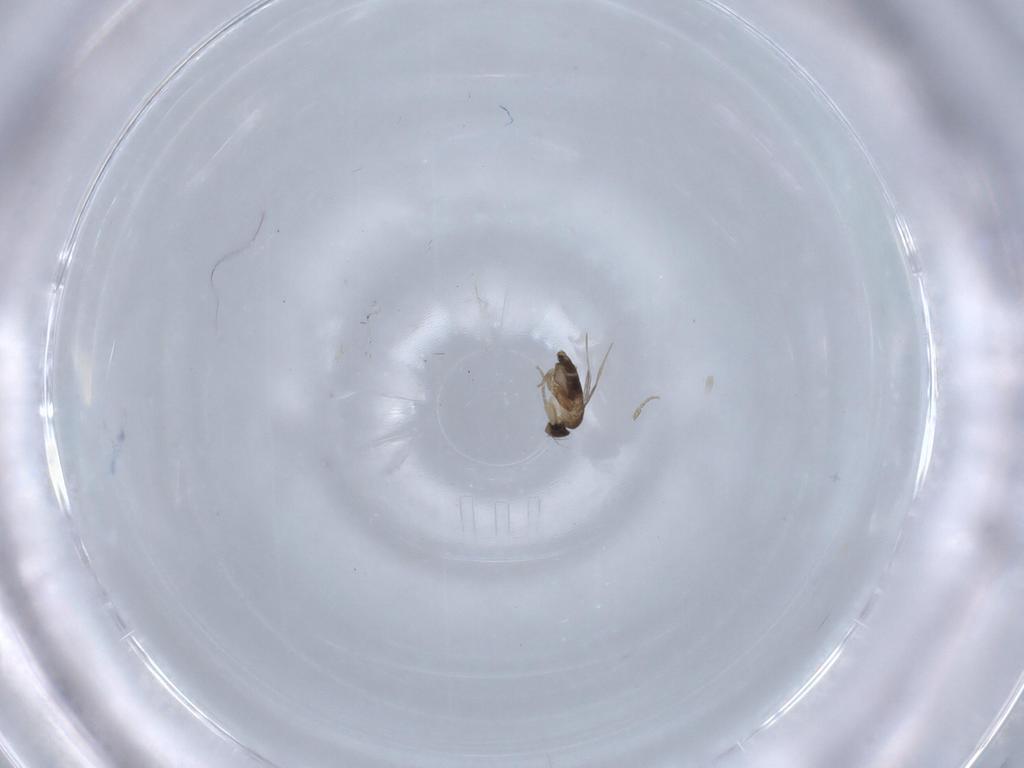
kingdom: Animalia
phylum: Arthropoda
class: Insecta
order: Diptera
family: Phoridae
